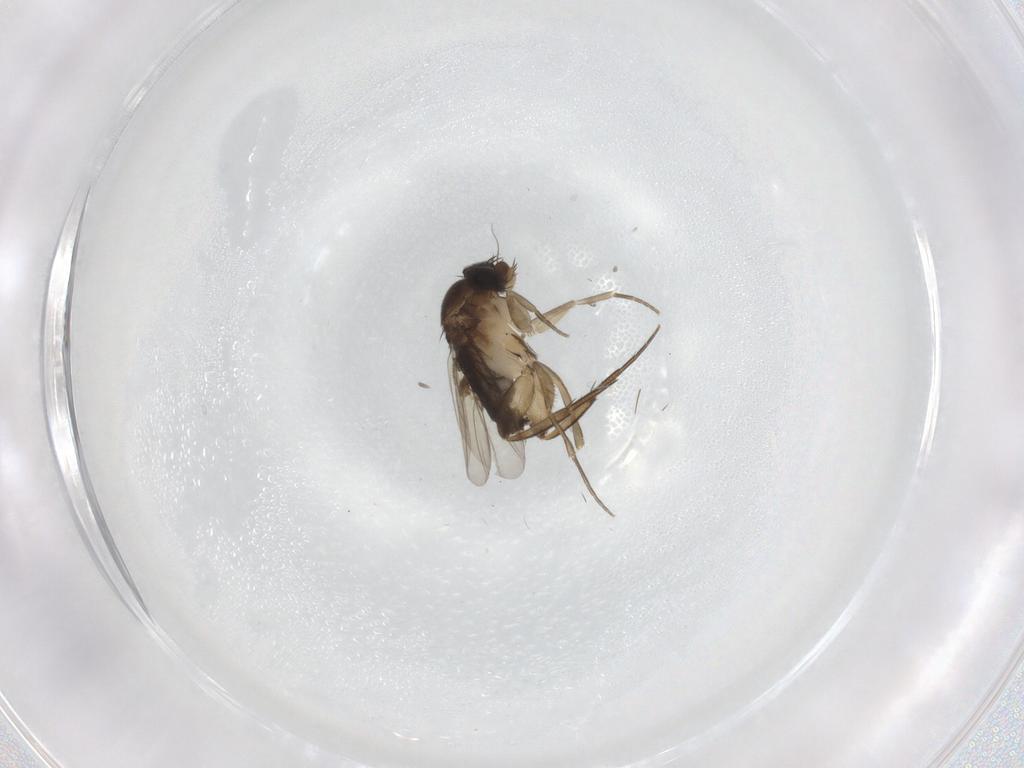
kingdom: Animalia
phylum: Arthropoda
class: Insecta
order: Diptera
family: Phoridae
